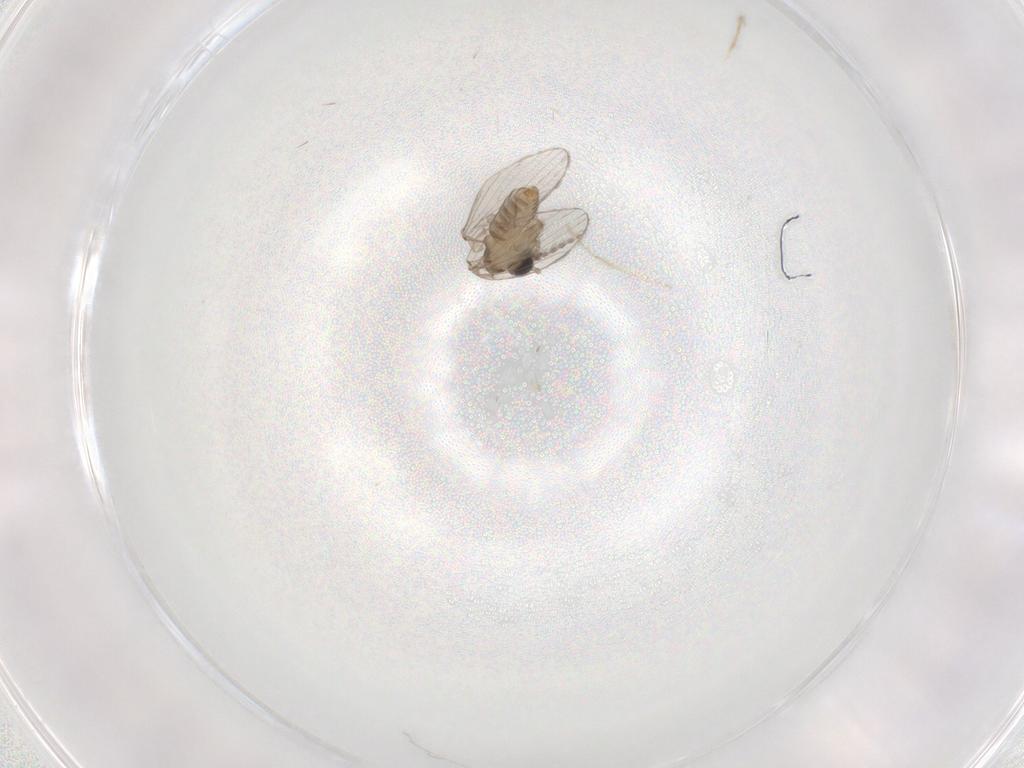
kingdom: Animalia
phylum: Arthropoda
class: Insecta
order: Diptera
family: Psychodidae
